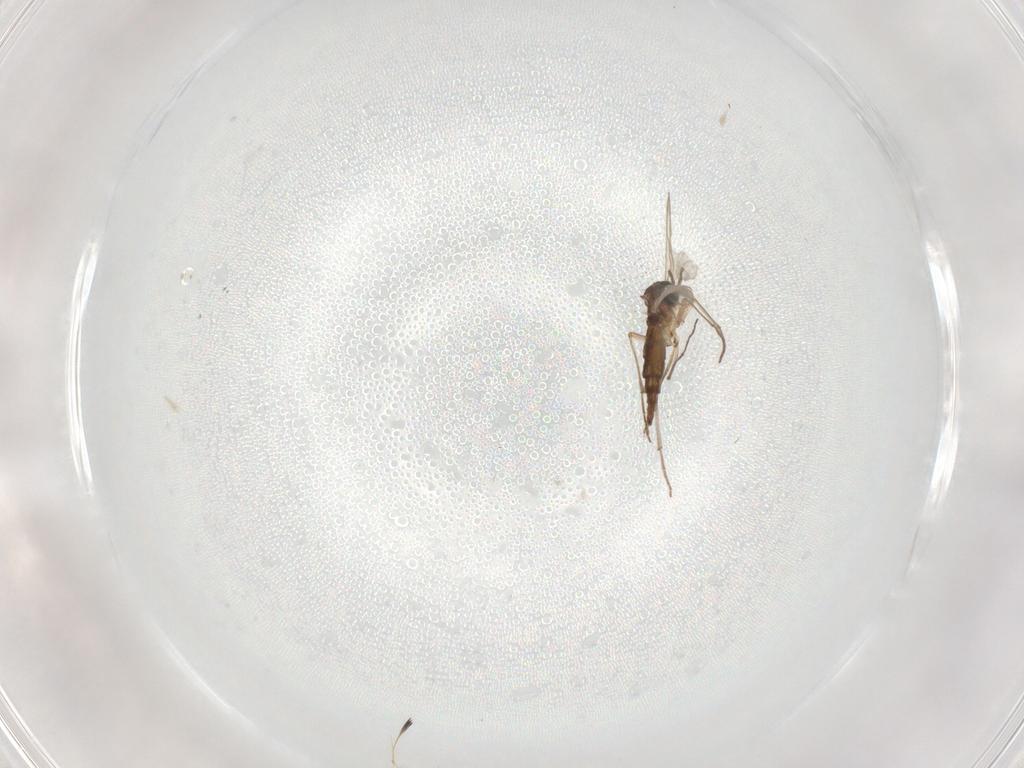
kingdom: Animalia
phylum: Arthropoda
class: Insecta
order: Diptera
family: Sciaridae
